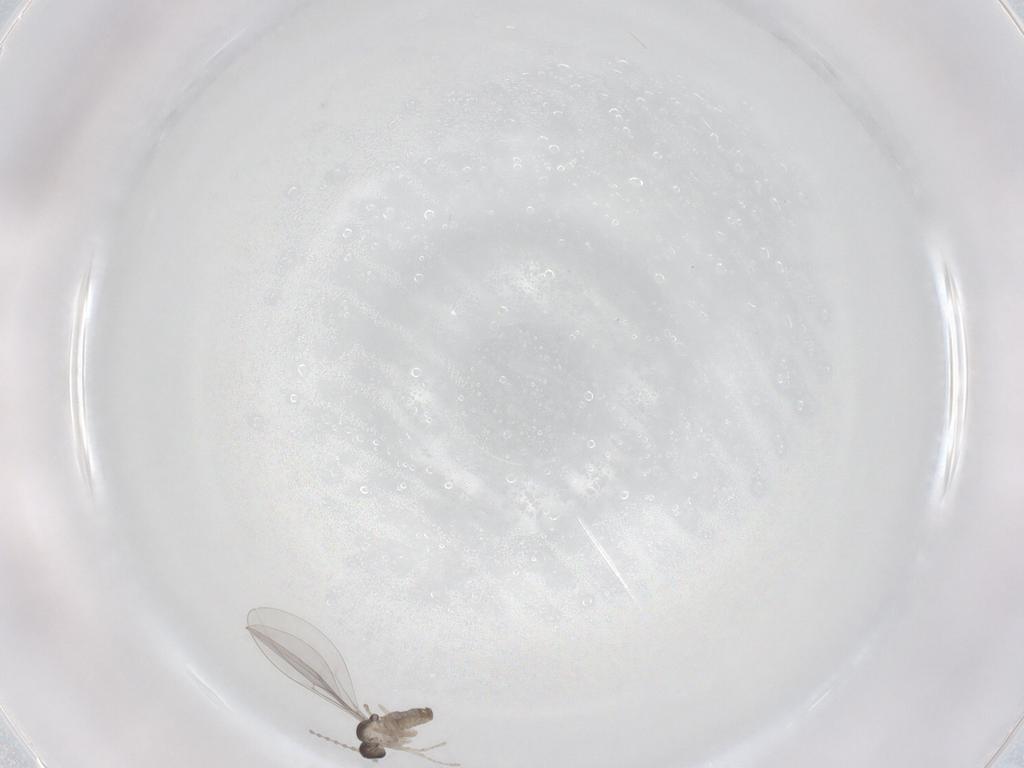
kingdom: Animalia
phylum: Arthropoda
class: Insecta
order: Diptera
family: Cecidomyiidae
